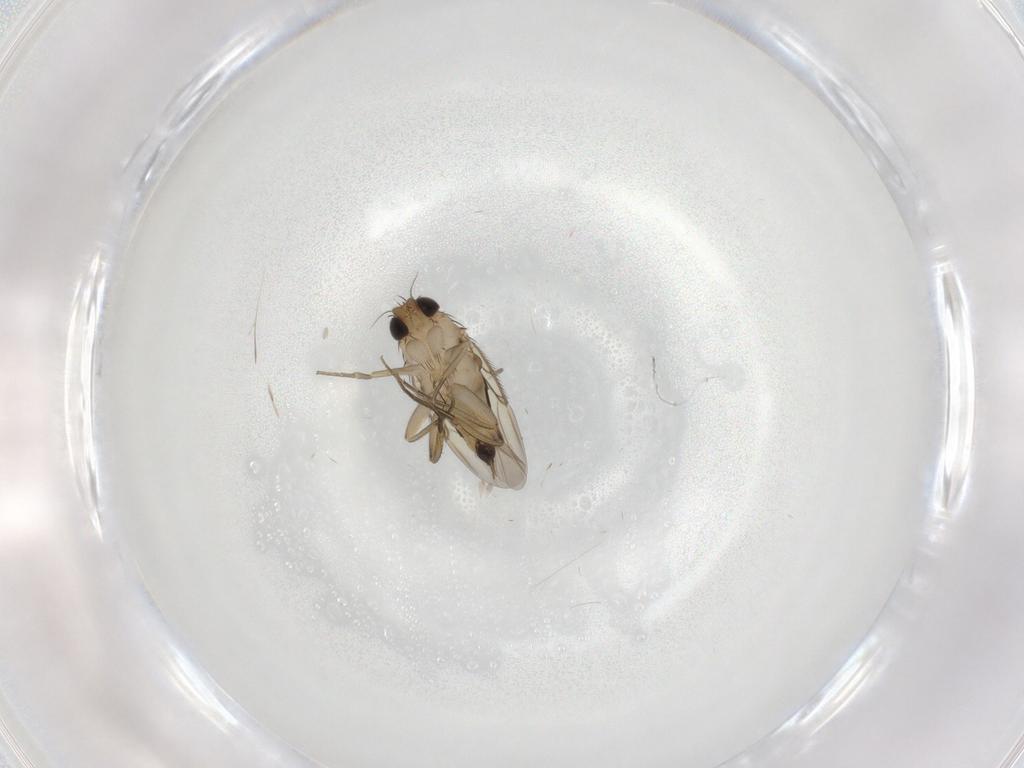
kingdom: Animalia
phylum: Arthropoda
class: Insecta
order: Diptera
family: Phoridae
